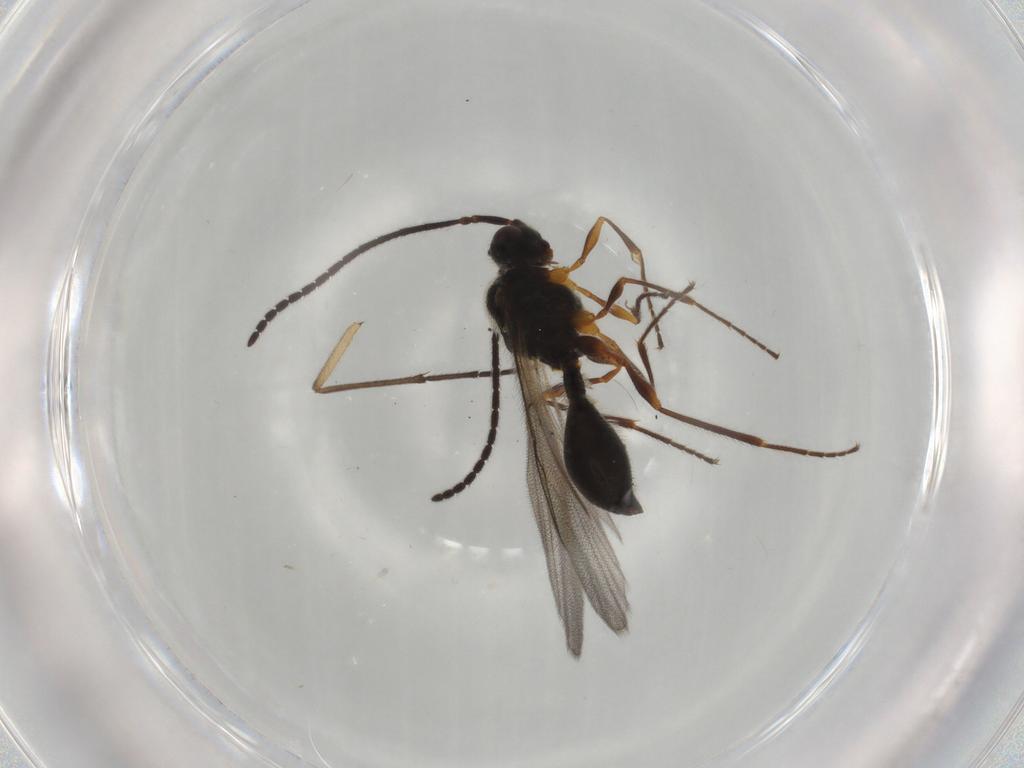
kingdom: Animalia
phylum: Arthropoda
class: Insecta
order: Hymenoptera
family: Diapriidae
